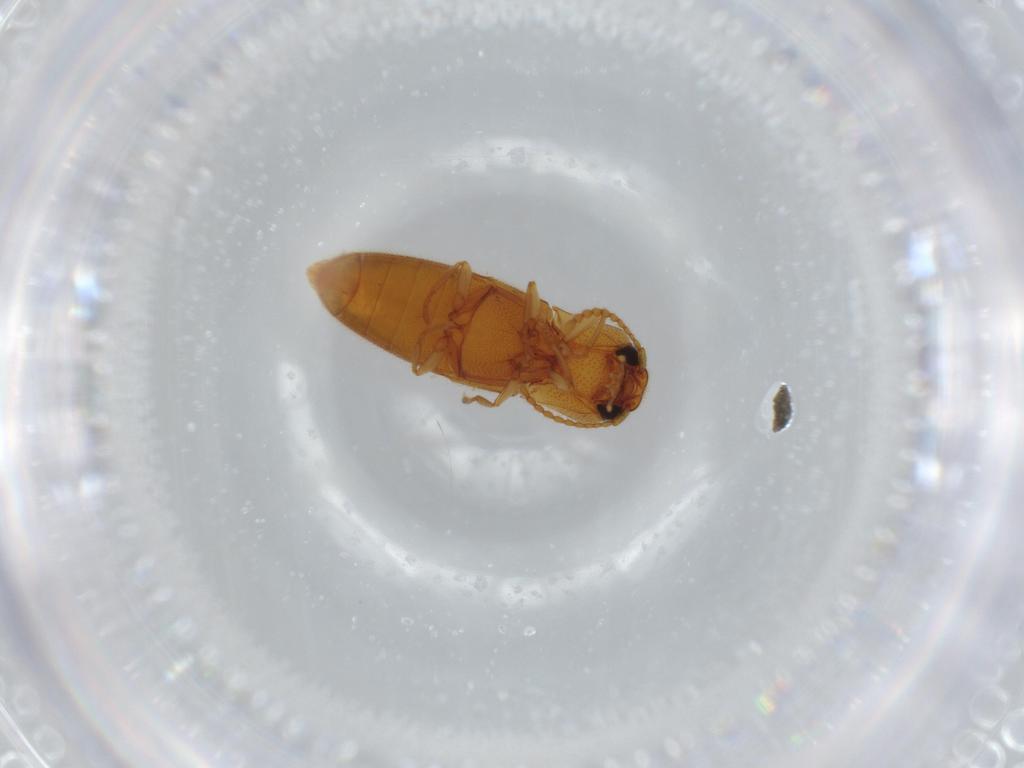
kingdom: Animalia
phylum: Arthropoda
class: Insecta
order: Coleoptera
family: Elateridae
